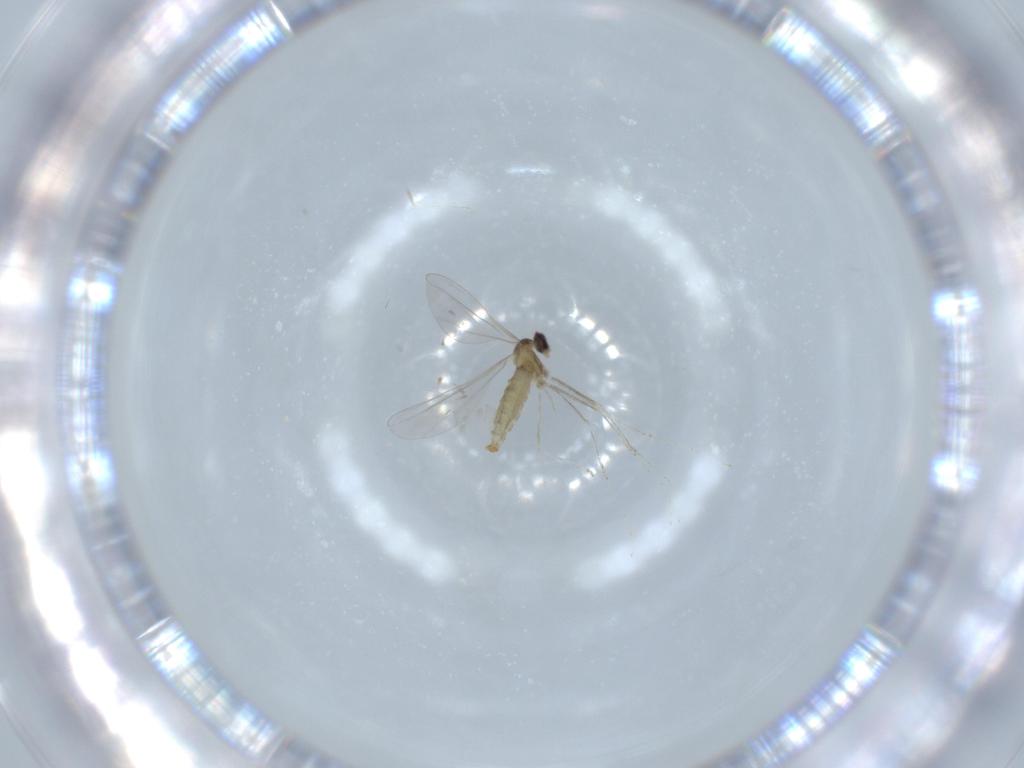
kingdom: Animalia
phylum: Arthropoda
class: Insecta
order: Diptera
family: Cecidomyiidae
